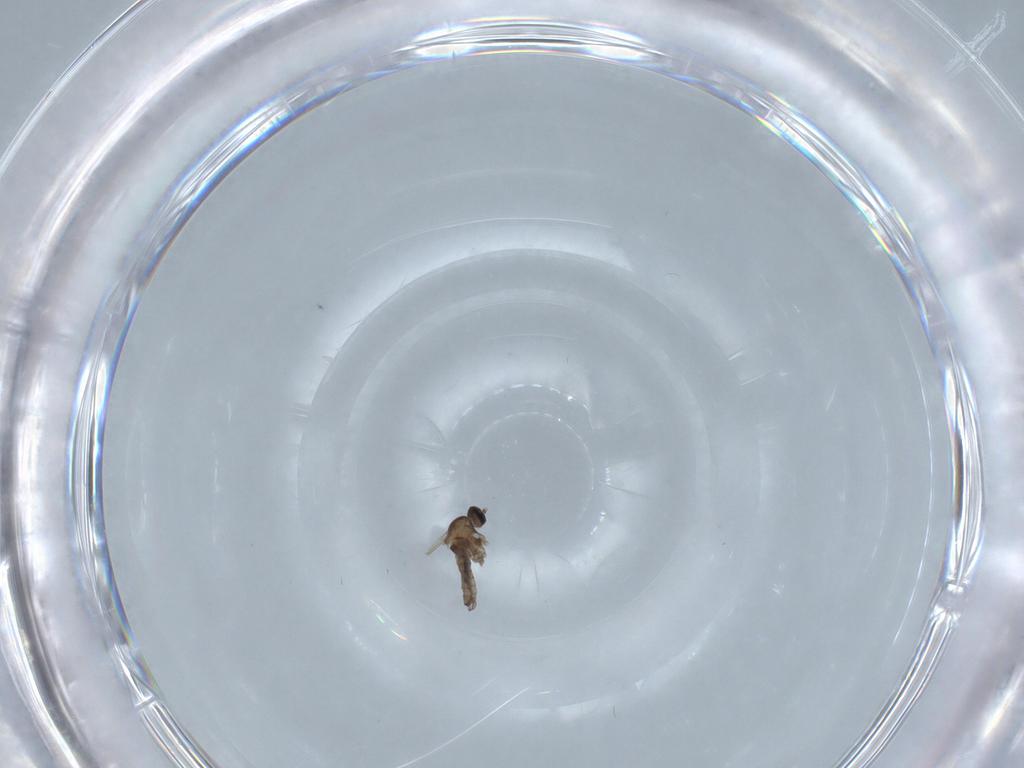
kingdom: Animalia
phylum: Arthropoda
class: Insecta
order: Diptera
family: Cecidomyiidae
